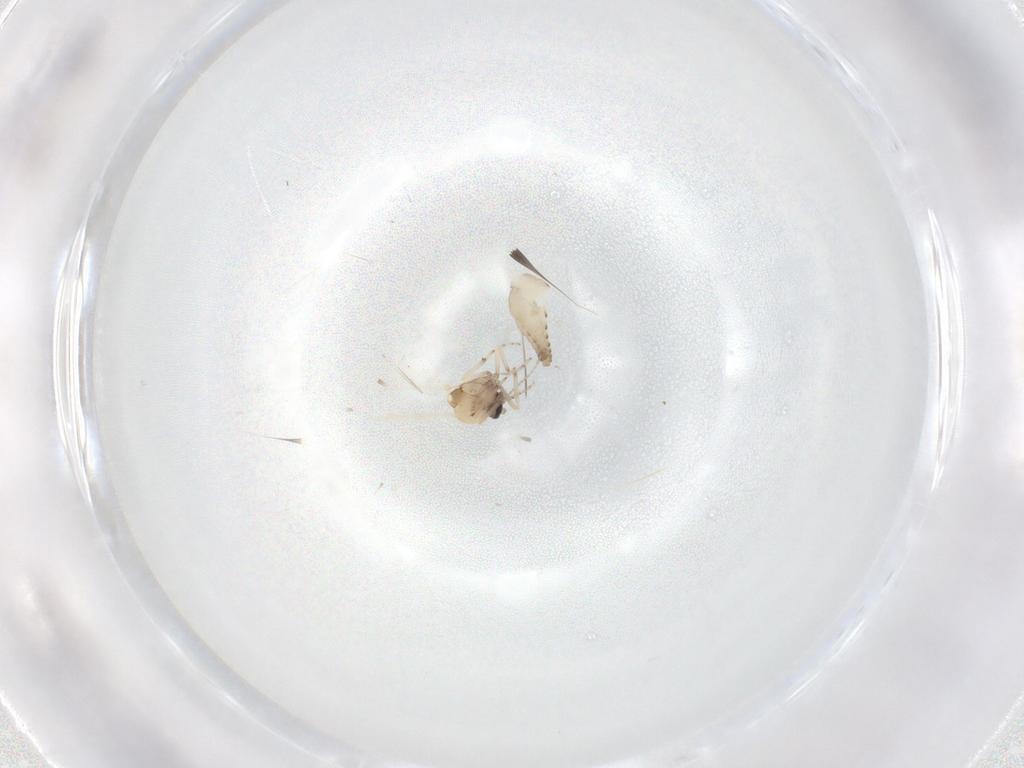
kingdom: Animalia
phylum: Arthropoda
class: Insecta
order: Diptera
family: Ceratopogonidae
